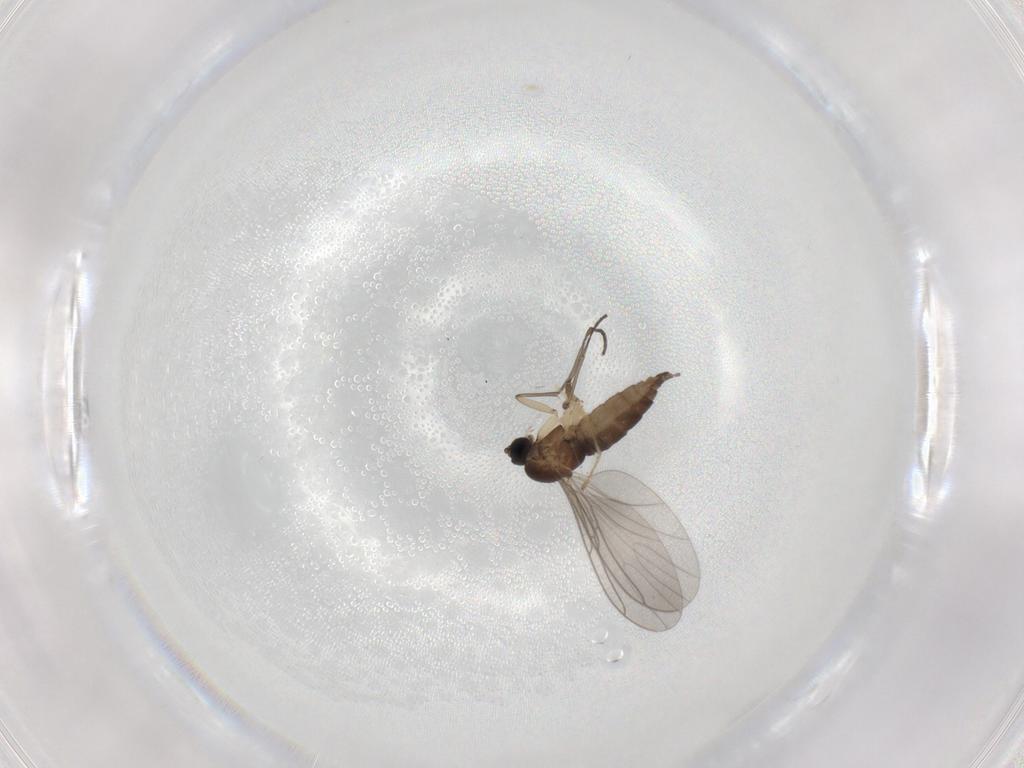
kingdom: Animalia
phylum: Arthropoda
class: Insecta
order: Diptera
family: Sciaridae
